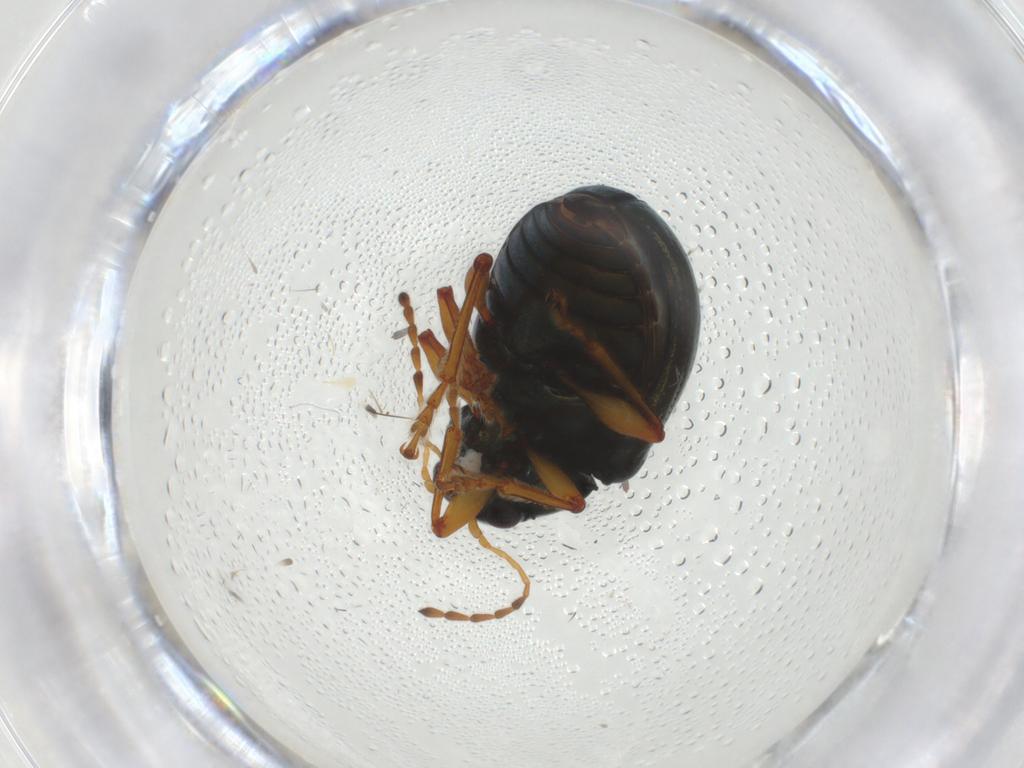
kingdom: Animalia
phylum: Arthropoda
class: Insecta
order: Coleoptera
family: Chrysomelidae
